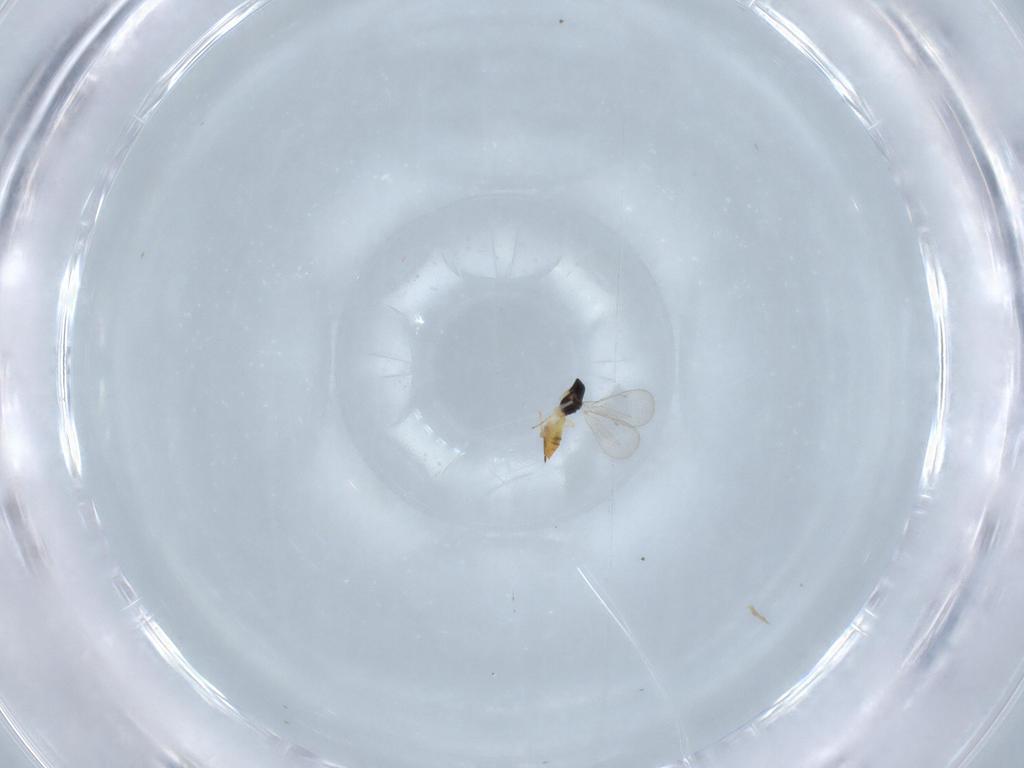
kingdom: Animalia
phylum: Arthropoda
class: Insecta
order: Hymenoptera
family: Eulophidae
